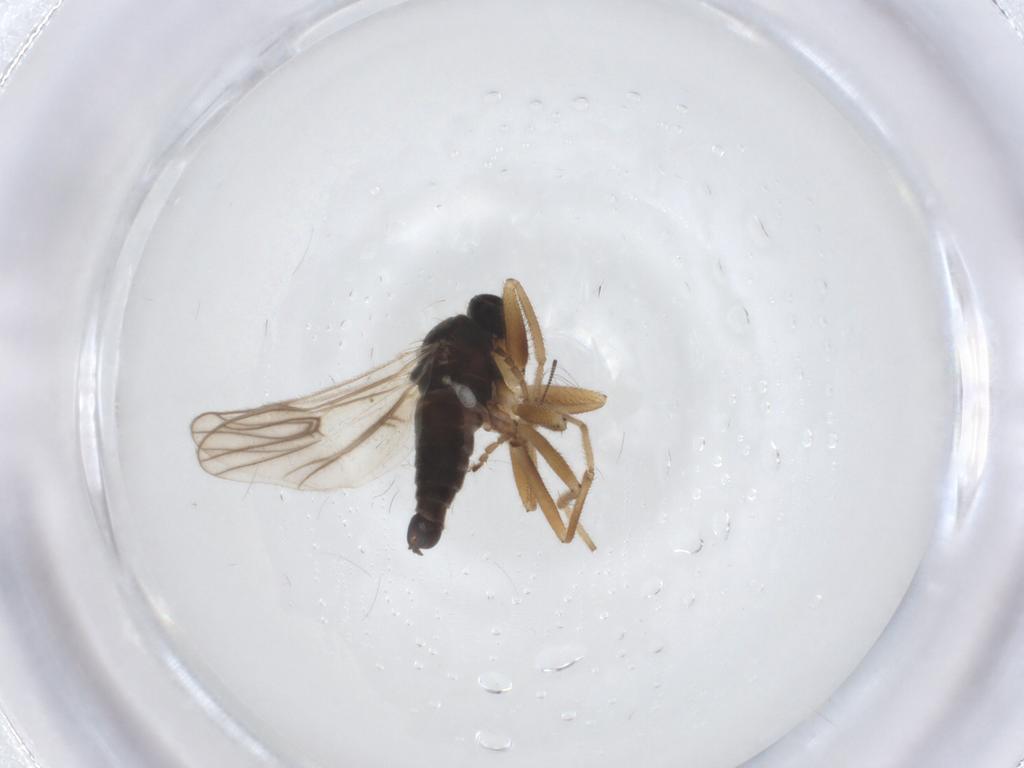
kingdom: Animalia
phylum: Arthropoda
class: Insecta
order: Diptera
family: Hybotidae
